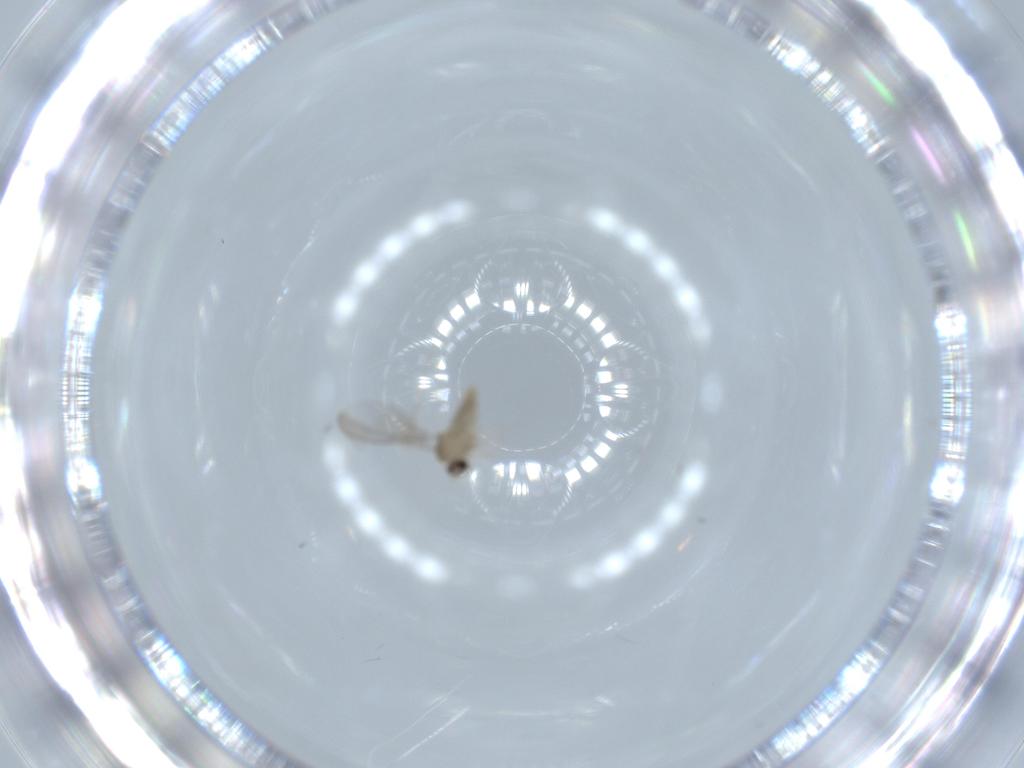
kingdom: Animalia
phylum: Arthropoda
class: Insecta
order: Diptera
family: Cecidomyiidae
